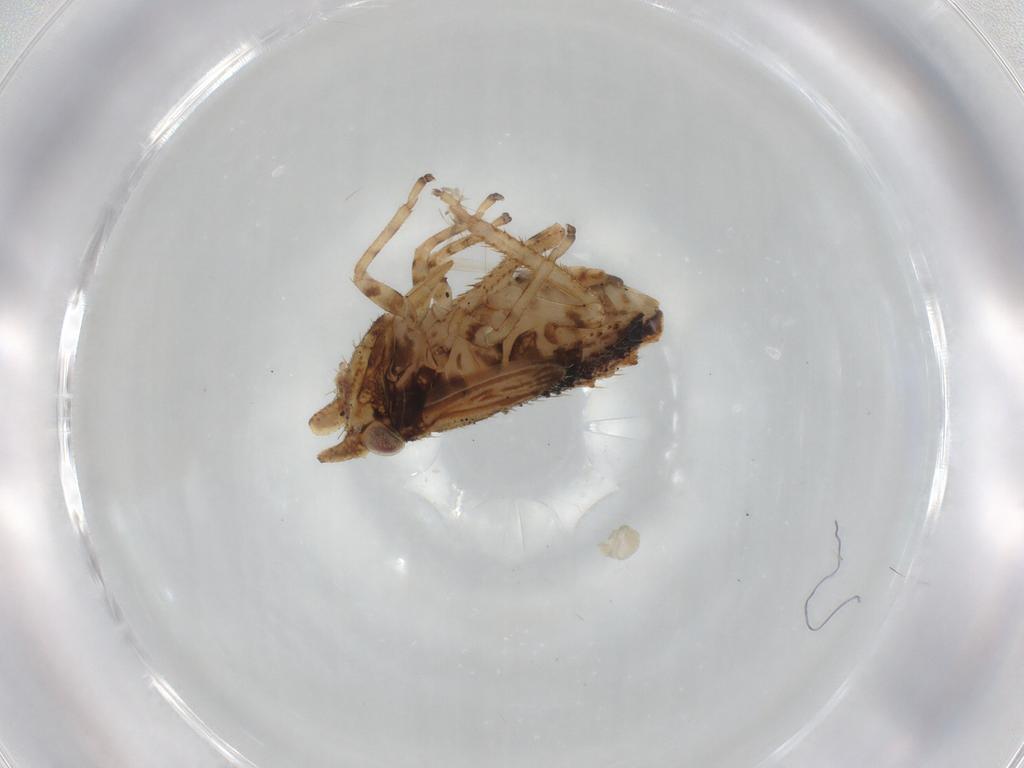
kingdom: Animalia
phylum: Arthropoda
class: Insecta
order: Hemiptera
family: Cicadellidae
